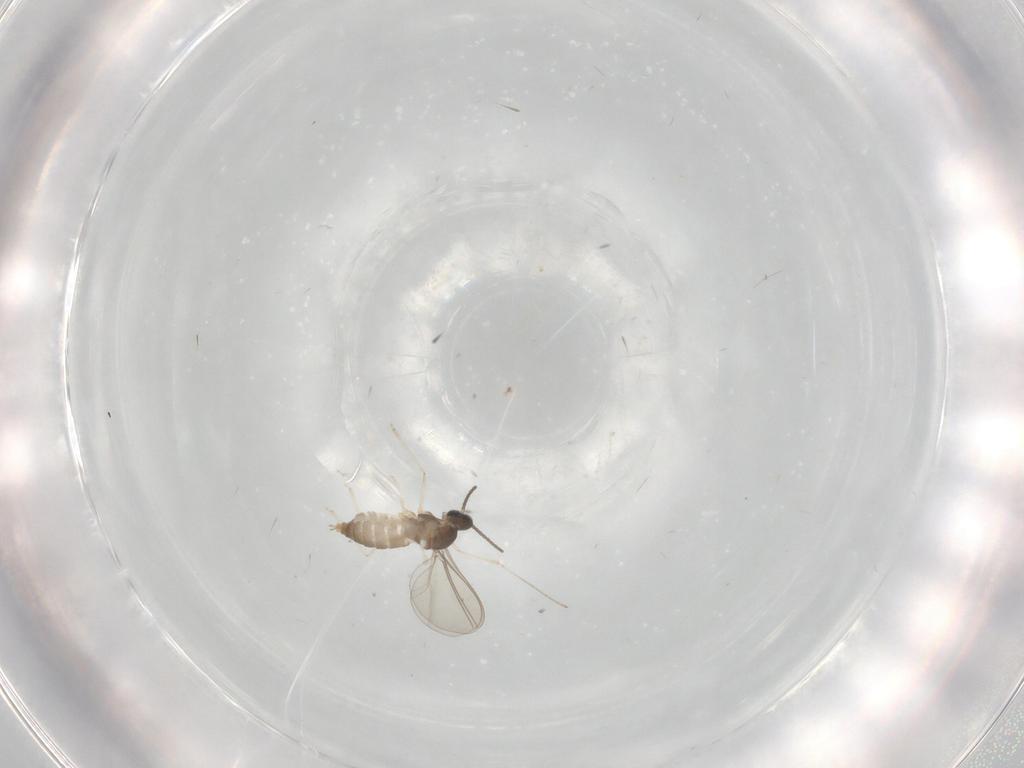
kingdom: Animalia
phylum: Arthropoda
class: Insecta
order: Diptera
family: Cecidomyiidae
